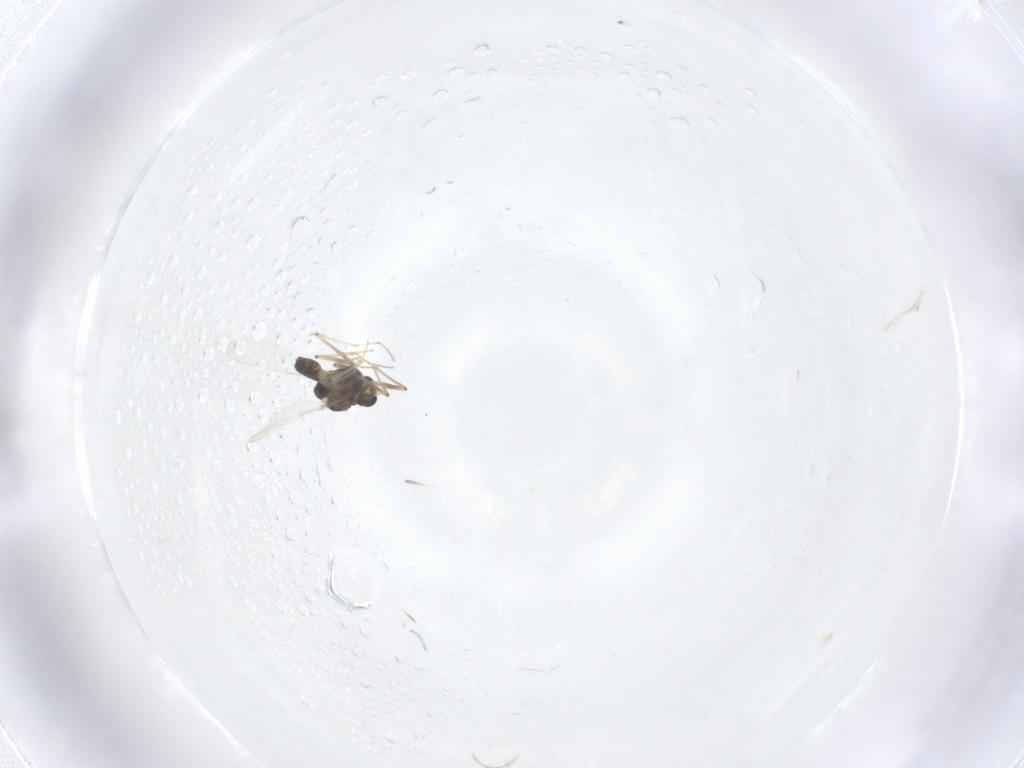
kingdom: Animalia
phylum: Arthropoda
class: Insecta
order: Diptera
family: Chironomidae
